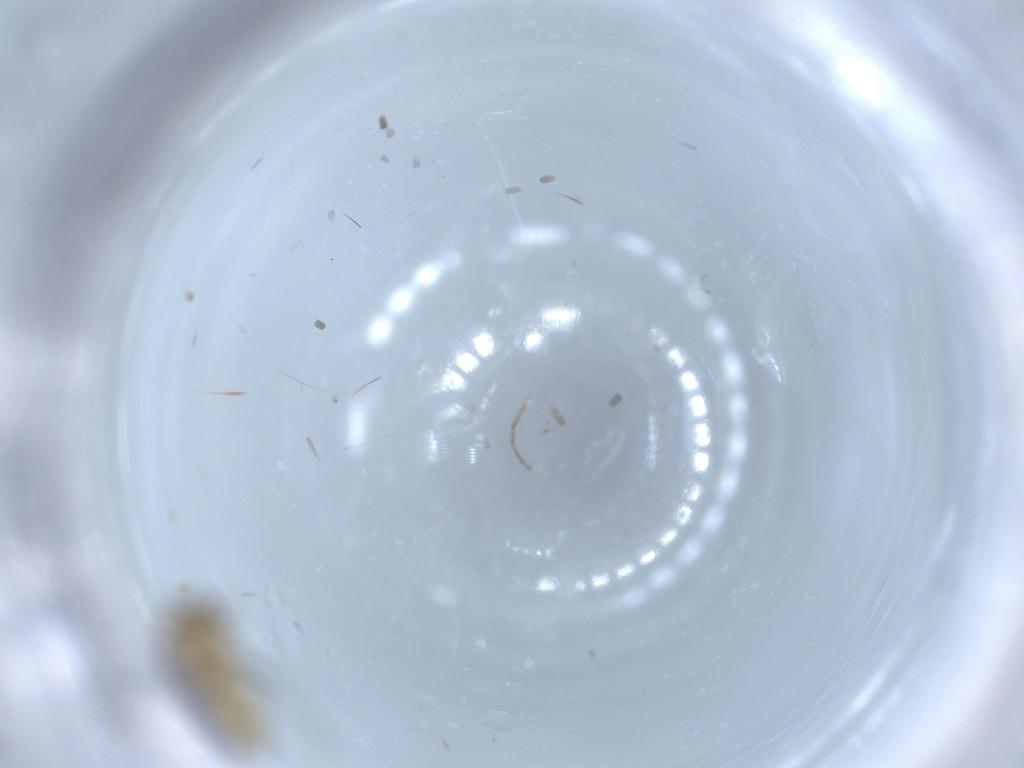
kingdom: Animalia
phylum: Arthropoda
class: Insecta
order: Diptera
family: Chironomidae
